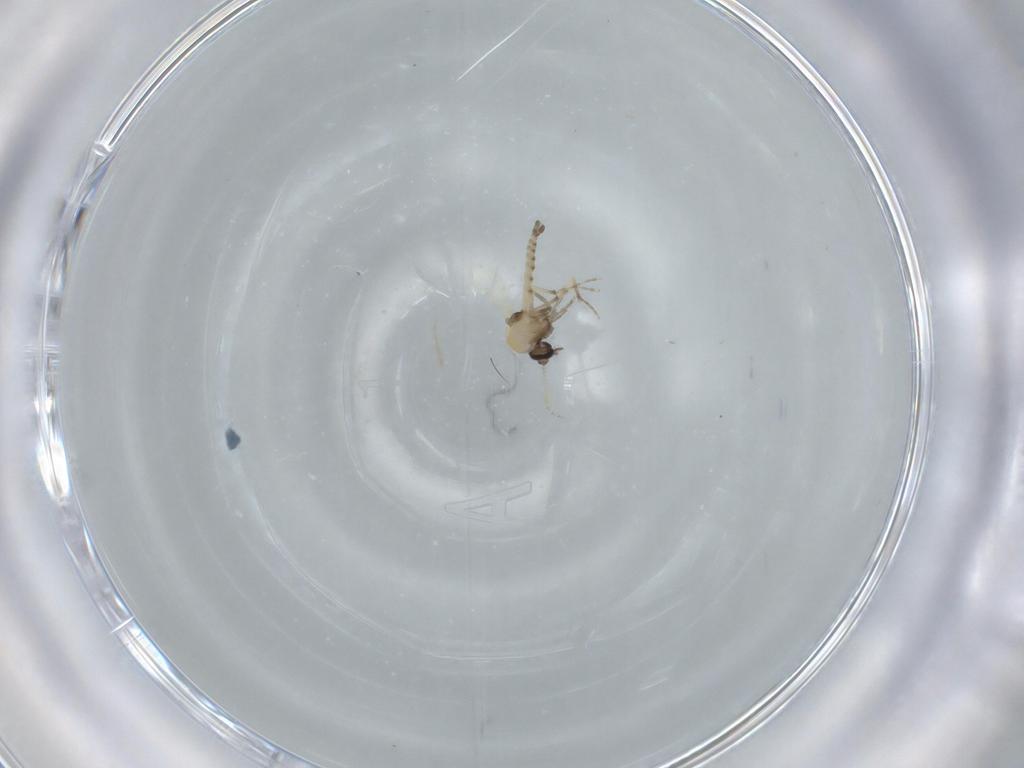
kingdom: Animalia
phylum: Arthropoda
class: Insecta
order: Diptera
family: Ceratopogonidae
